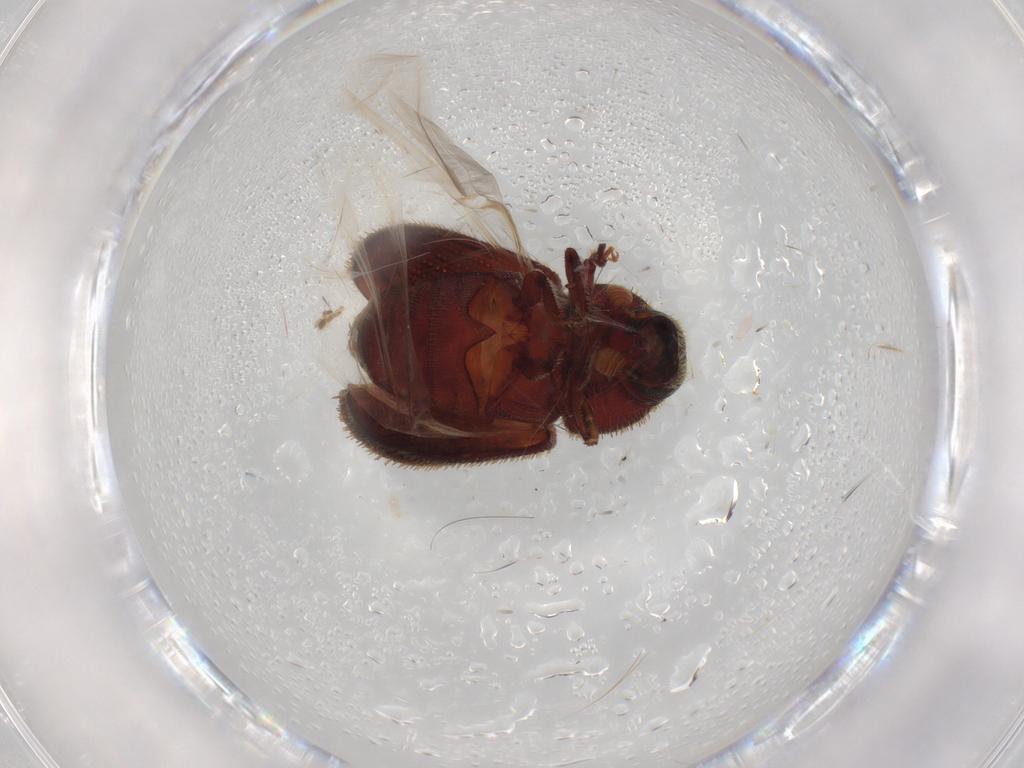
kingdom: Animalia
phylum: Arthropoda
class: Insecta
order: Coleoptera
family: Chrysomelidae
